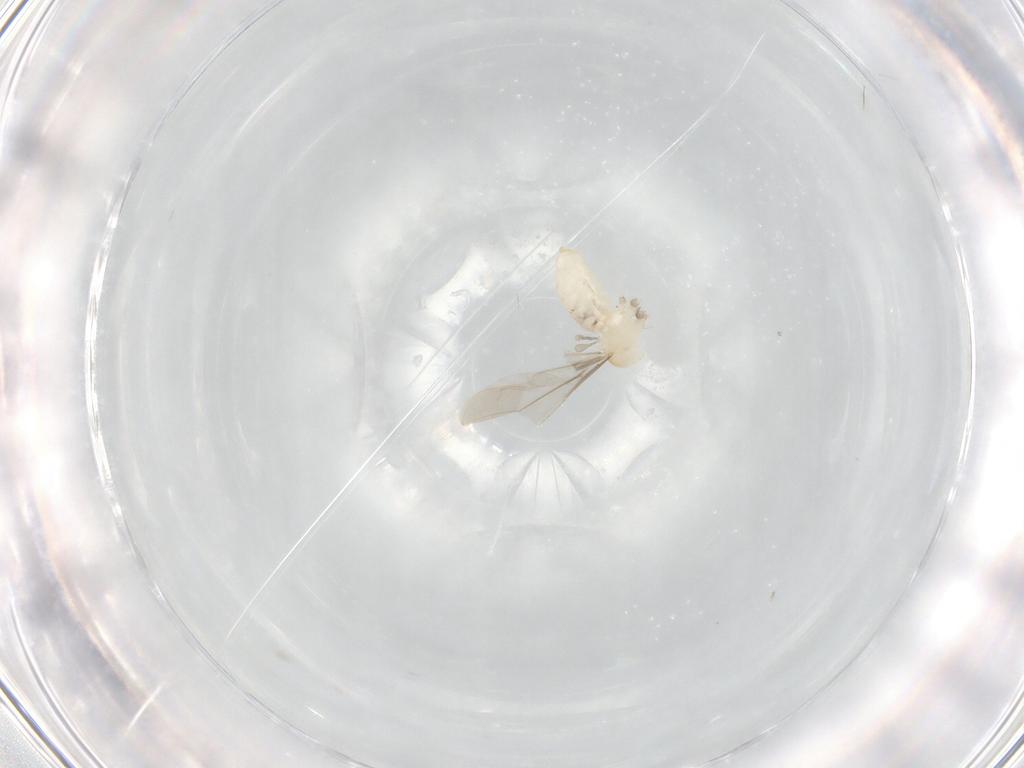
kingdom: Animalia
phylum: Arthropoda
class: Insecta
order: Diptera
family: Cecidomyiidae
